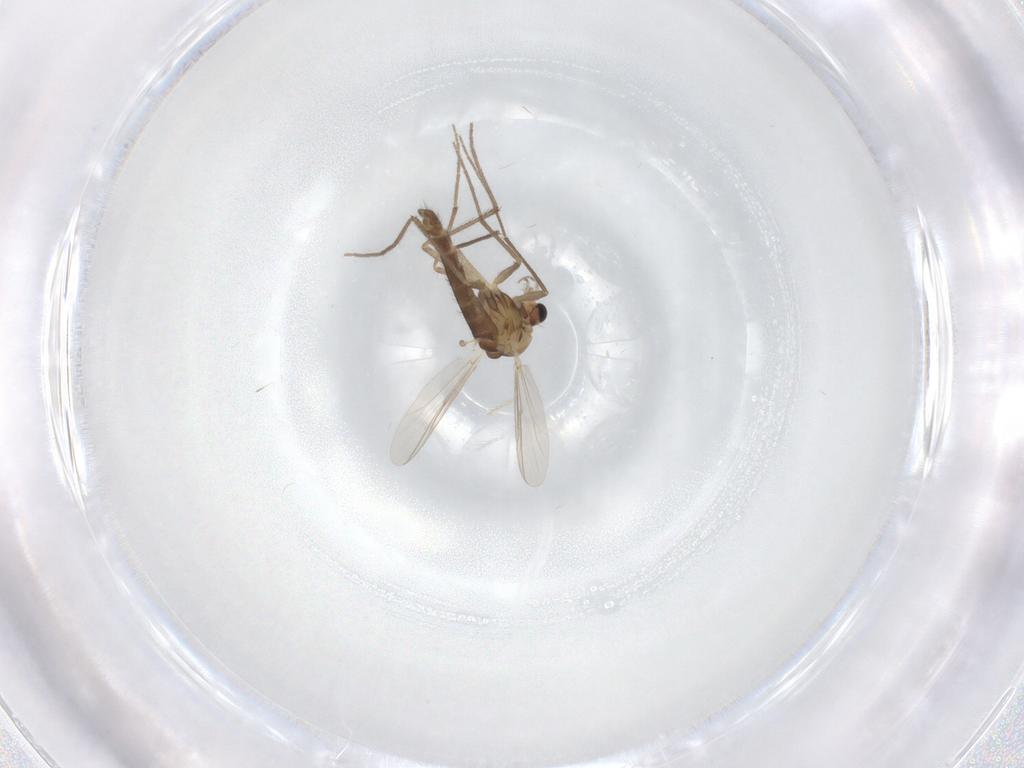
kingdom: Animalia
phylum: Arthropoda
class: Insecta
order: Diptera
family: Chironomidae
